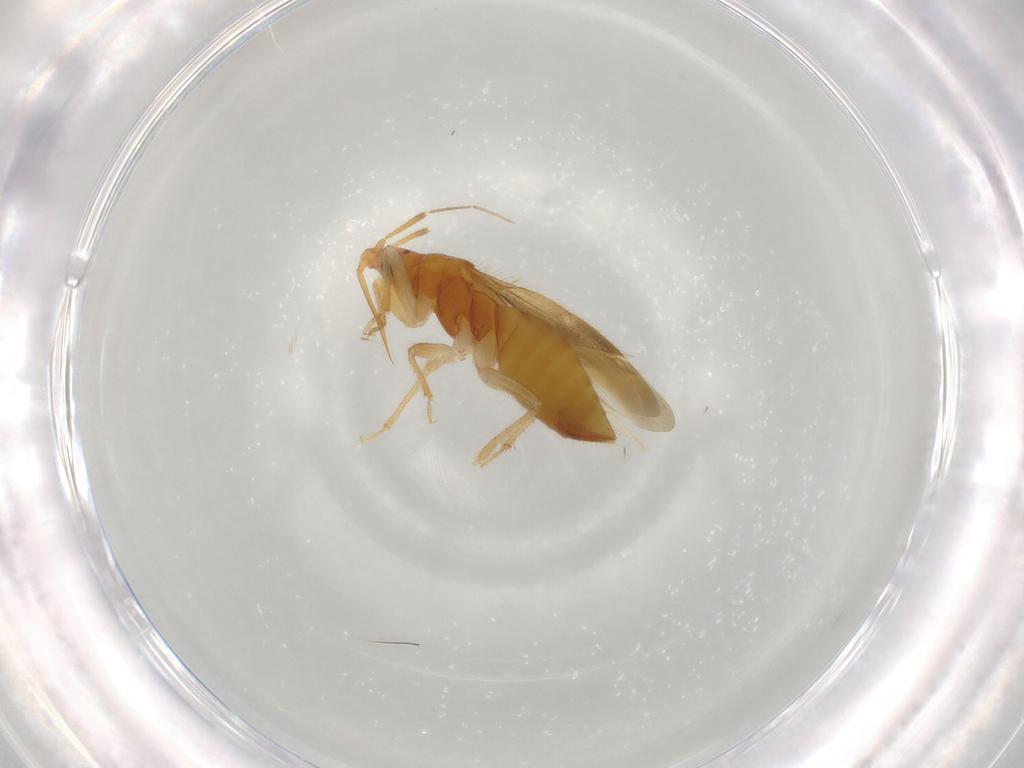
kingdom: Animalia
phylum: Arthropoda
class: Insecta
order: Hemiptera
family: Lasiochilidae
